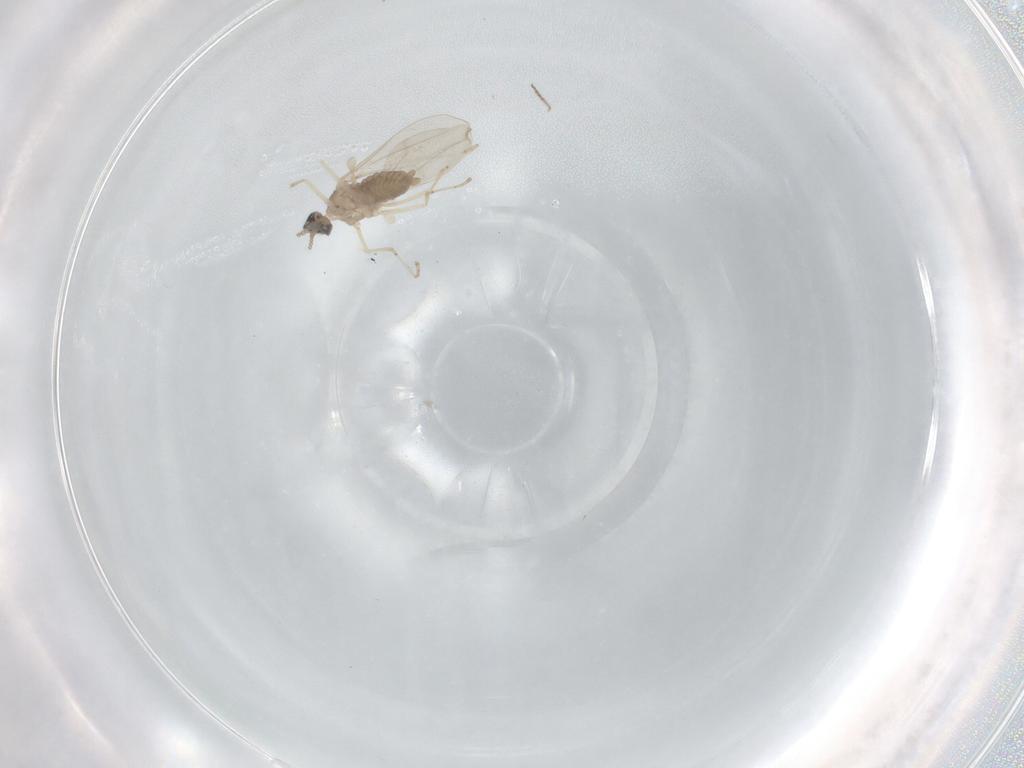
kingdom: Animalia
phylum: Arthropoda
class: Insecta
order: Diptera
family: Ceratopogonidae
